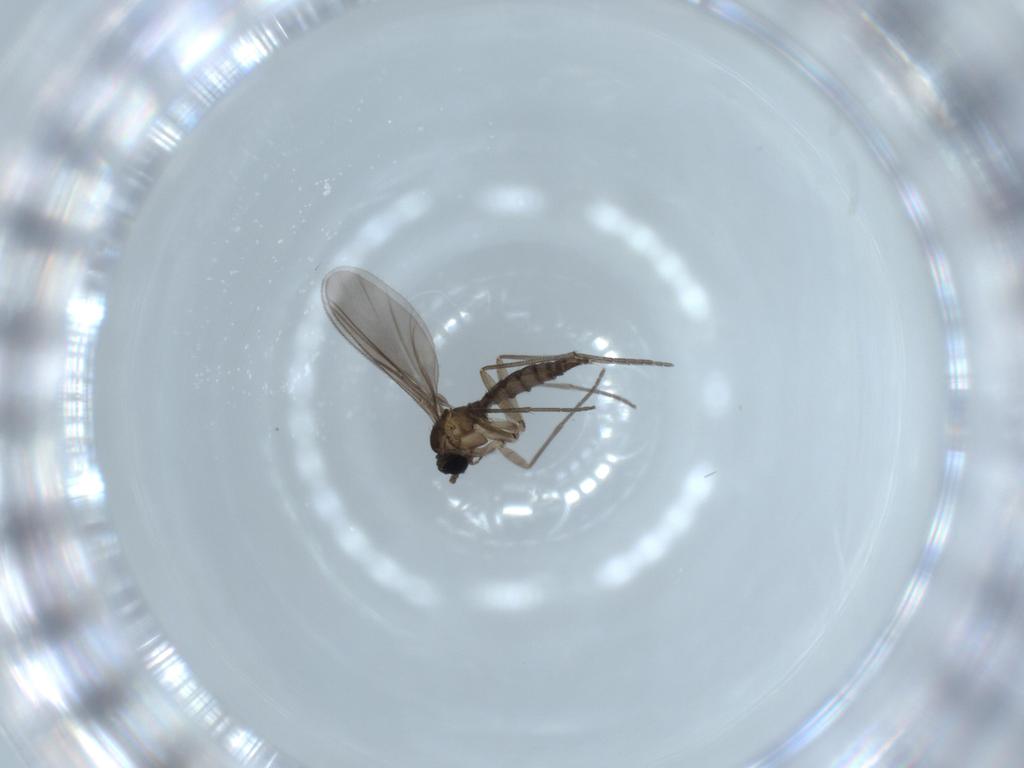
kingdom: Animalia
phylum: Arthropoda
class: Insecta
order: Diptera
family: Sciaridae
